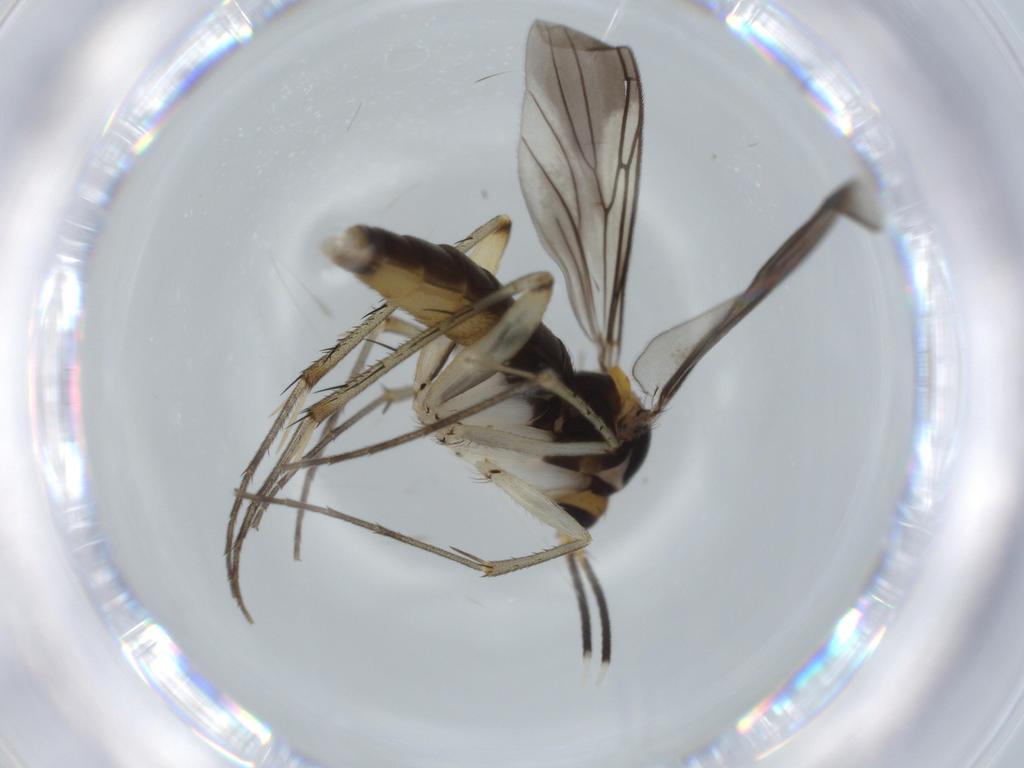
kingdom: Animalia
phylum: Arthropoda
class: Insecta
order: Diptera
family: Mycetophilidae
